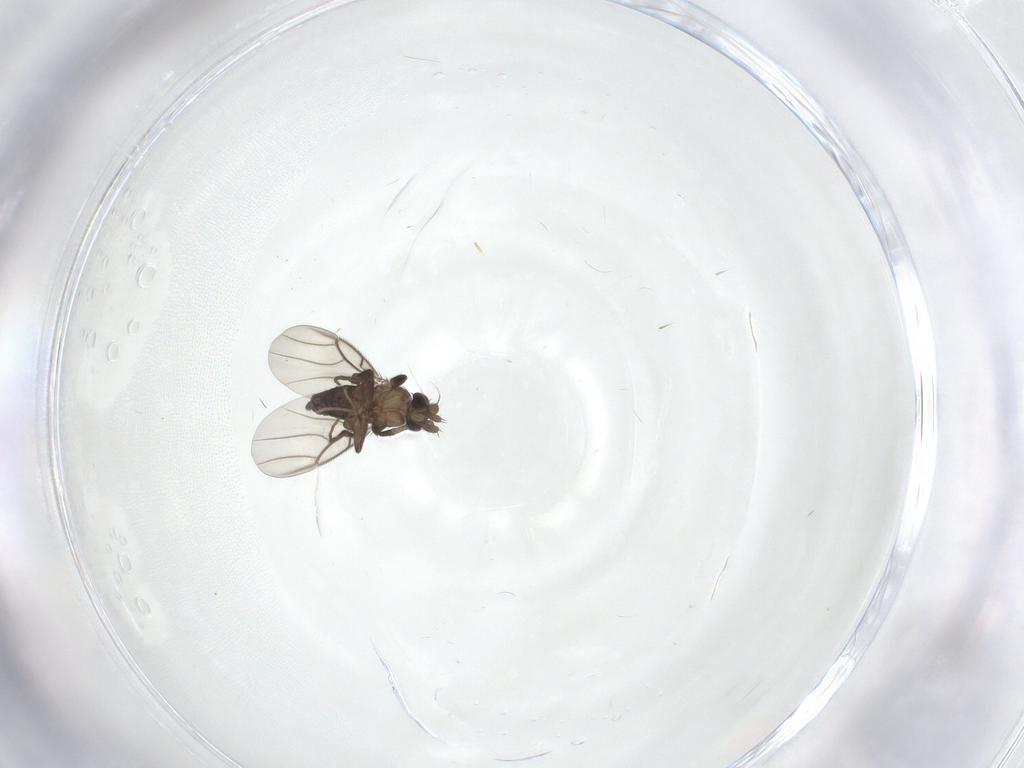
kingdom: Animalia
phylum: Arthropoda
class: Insecta
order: Diptera
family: Phoridae
